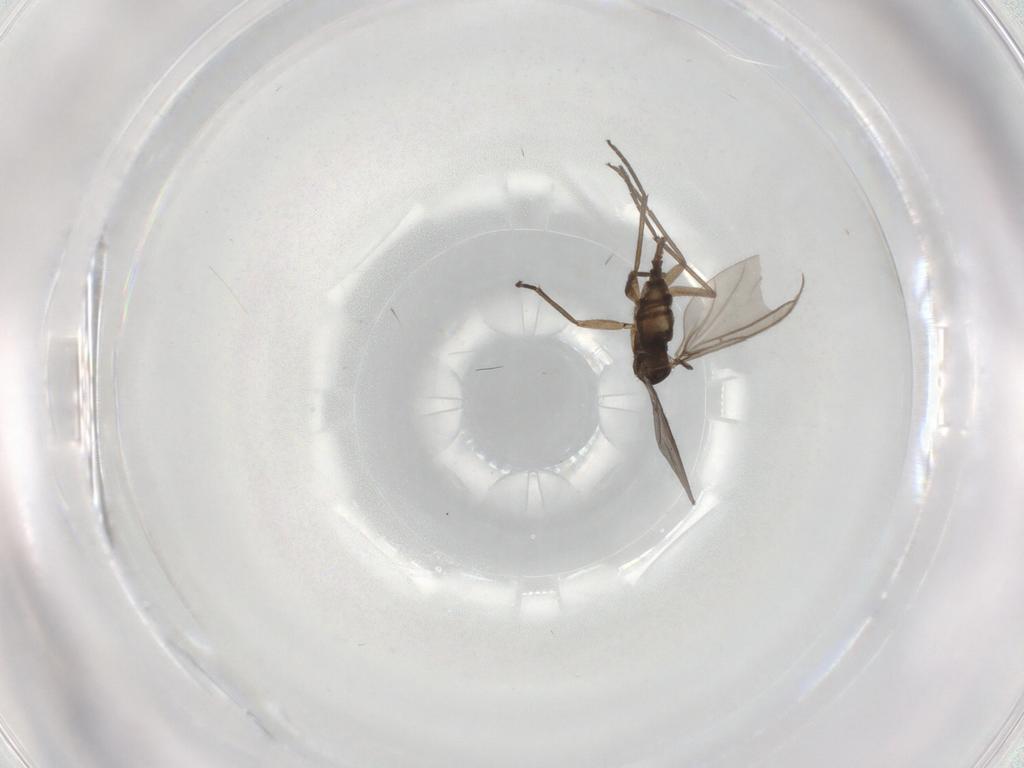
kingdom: Animalia
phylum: Arthropoda
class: Insecta
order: Diptera
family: Sciaridae
